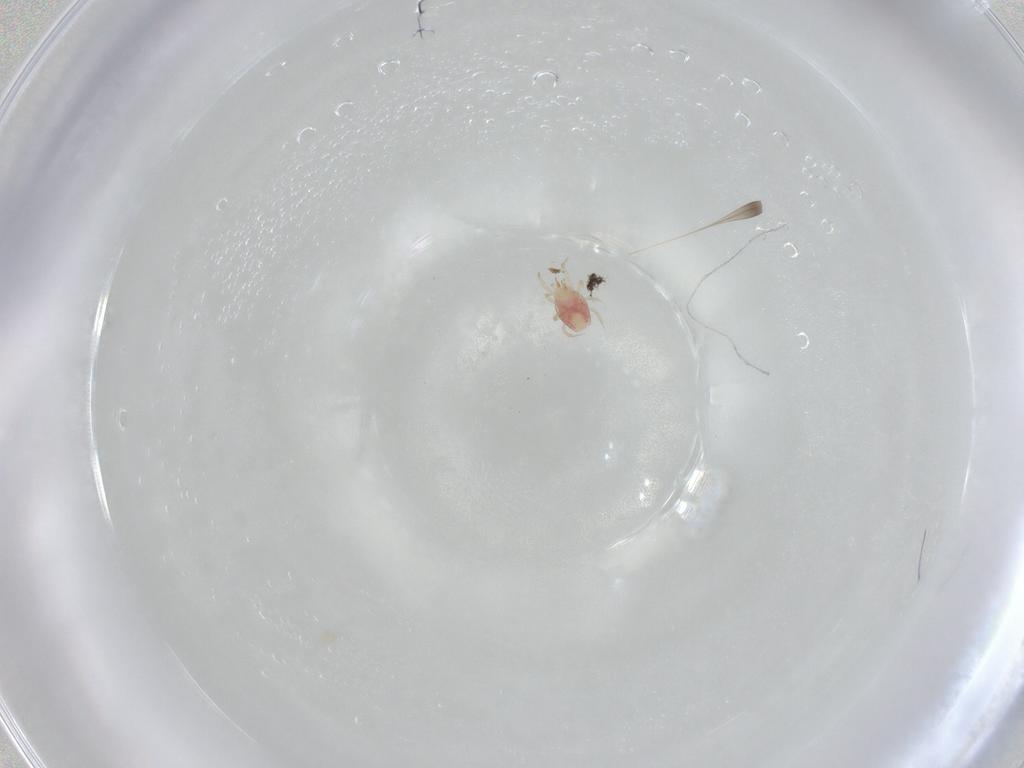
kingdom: Animalia
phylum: Arthropoda
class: Arachnida
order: Mesostigmata
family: Phytoseiidae
